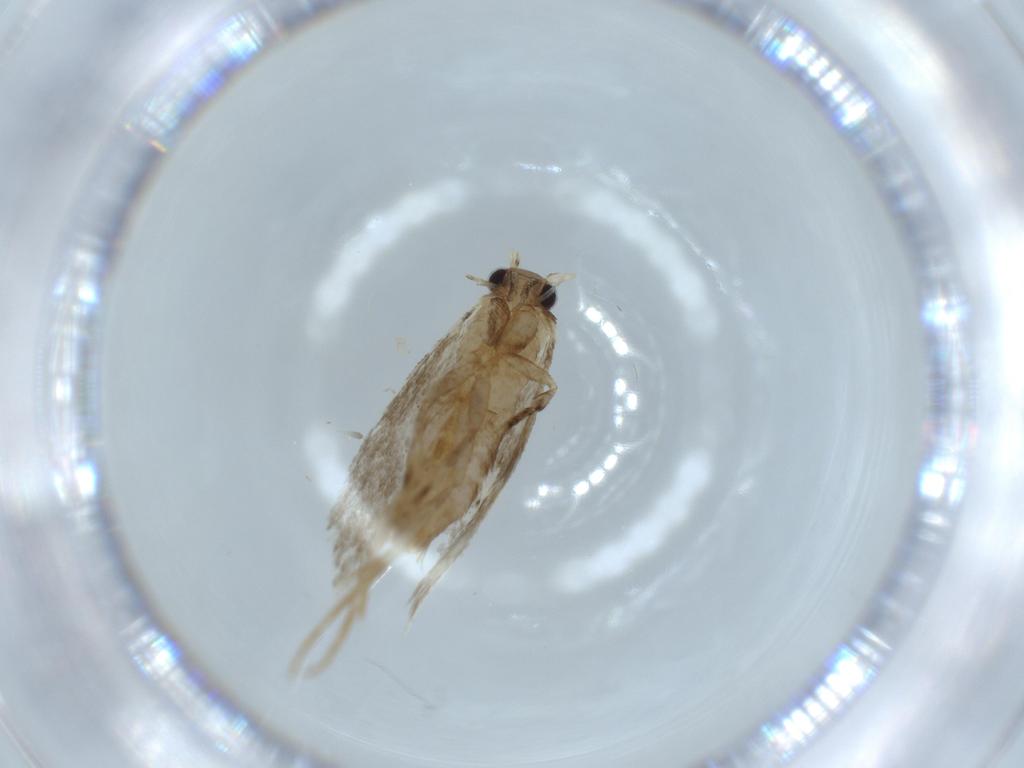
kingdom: Animalia
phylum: Arthropoda
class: Insecta
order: Lepidoptera
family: Tineidae
